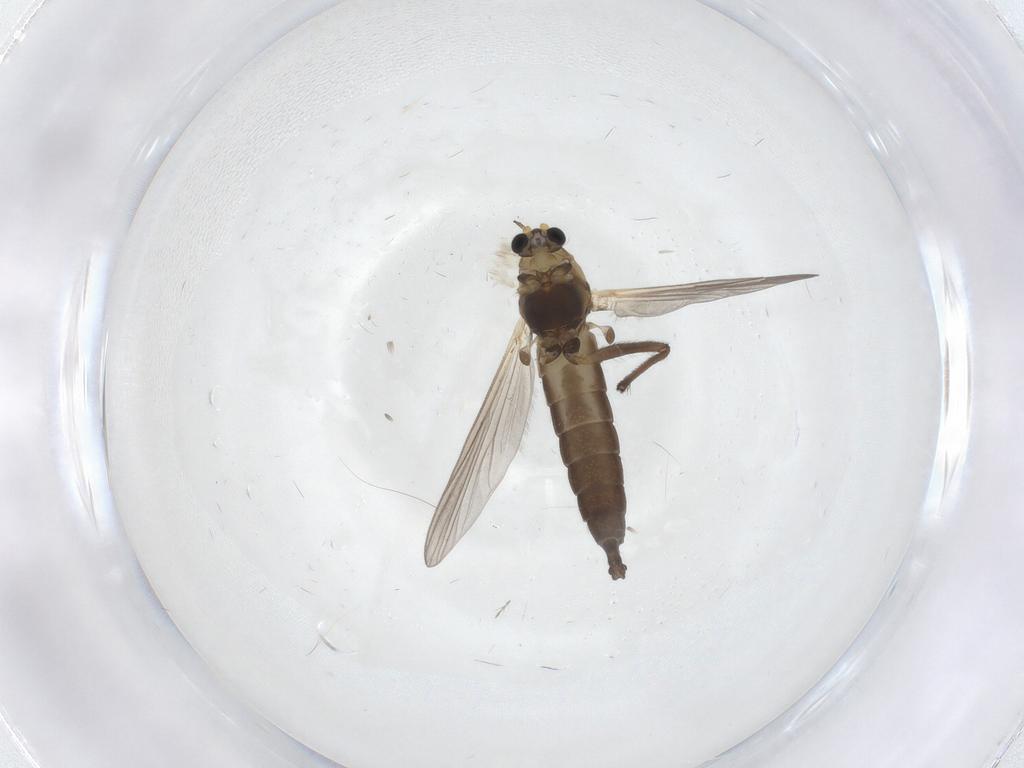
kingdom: Animalia
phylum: Arthropoda
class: Insecta
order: Diptera
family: Chironomidae
